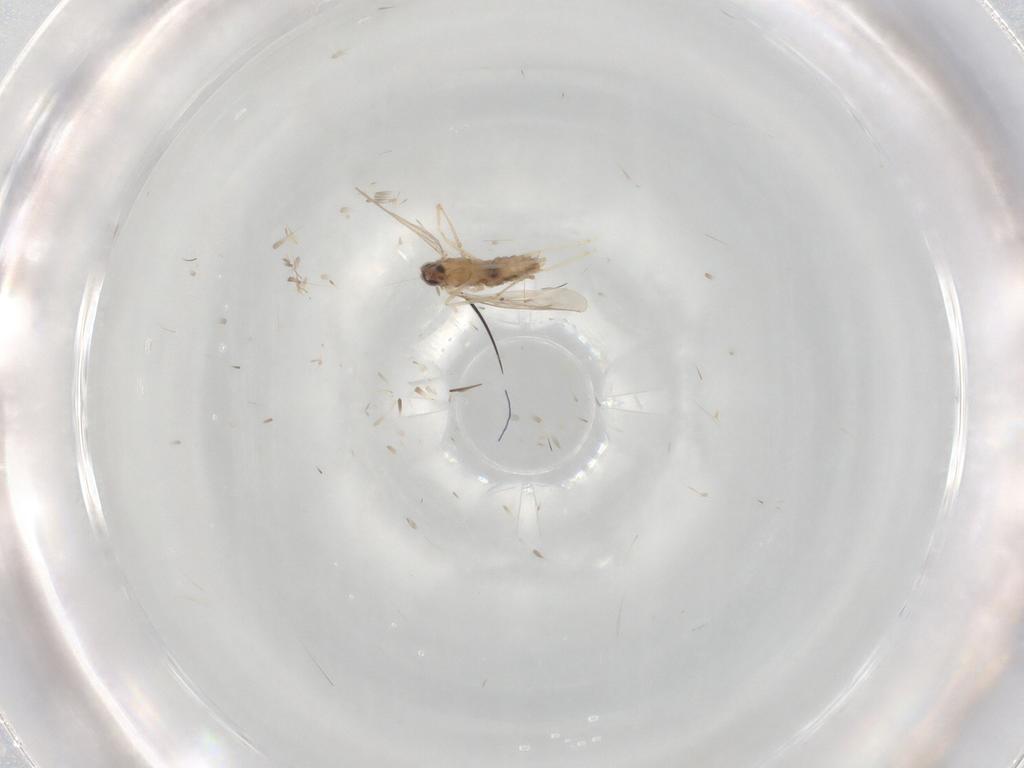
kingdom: Animalia
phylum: Arthropoda
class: Insecta
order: Diptera
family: Cecidomyiidae
